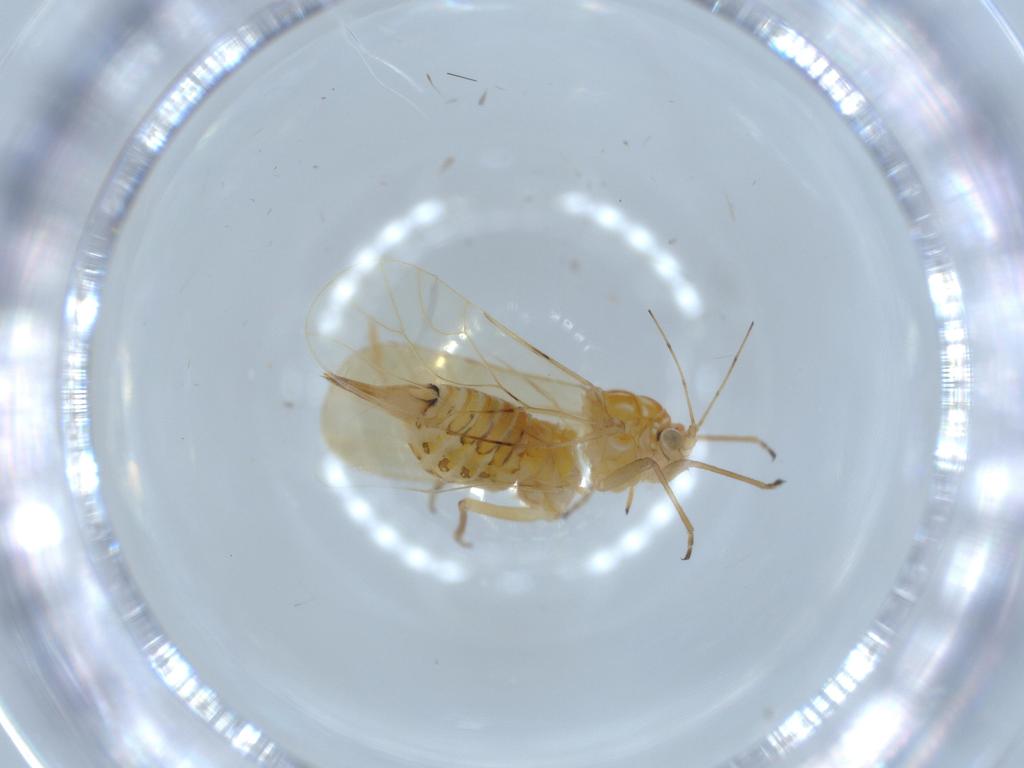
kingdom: Animalia
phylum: Arthropoda
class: Insecta
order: Hemiptera
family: Psyllidae
